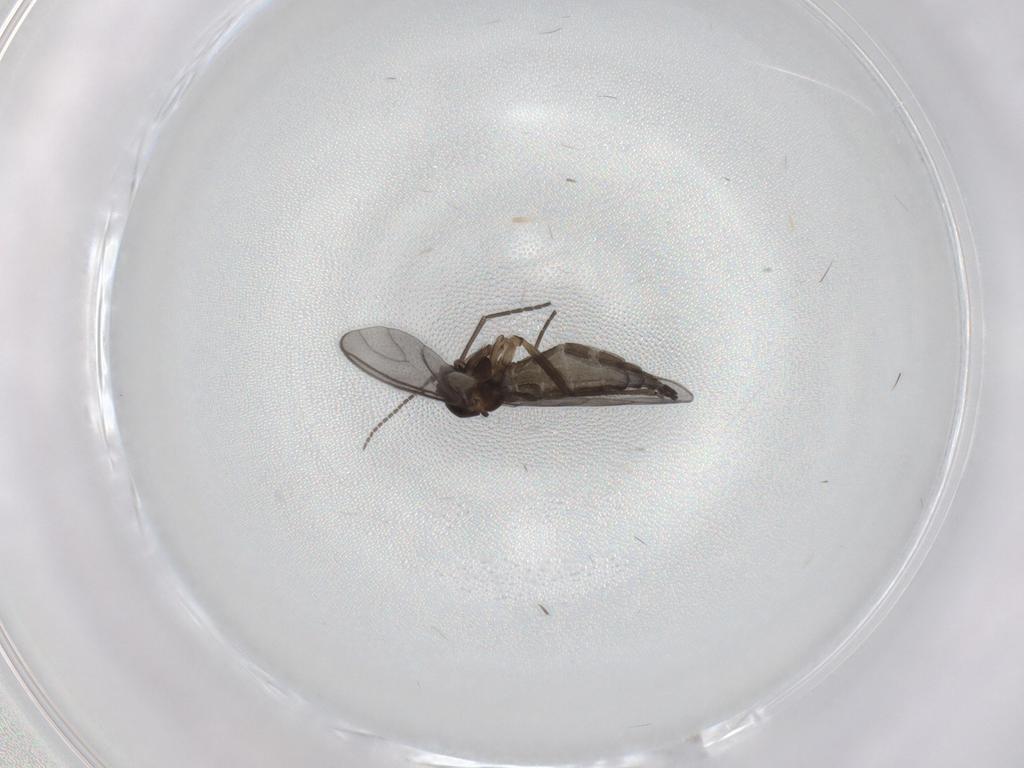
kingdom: Animalia
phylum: Arthropoda
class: Insecta
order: Diptera
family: Sciaridae
